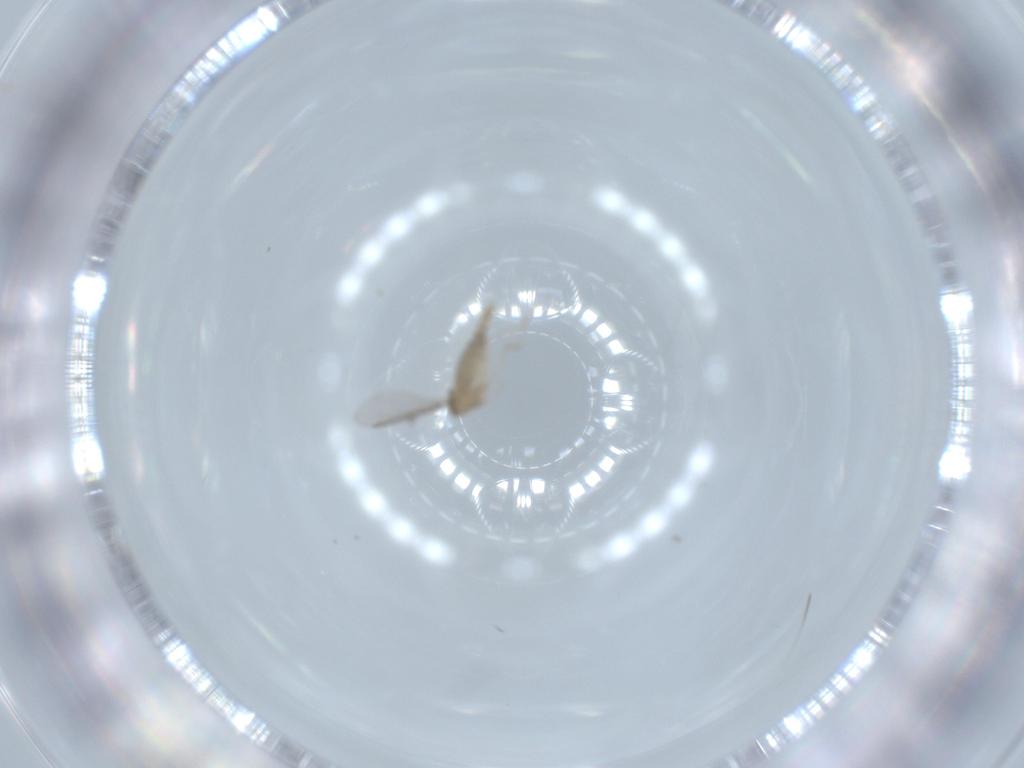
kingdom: Animalia
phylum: Arthropoda
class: Insecta
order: Diptera
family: Cecidomyiidae
